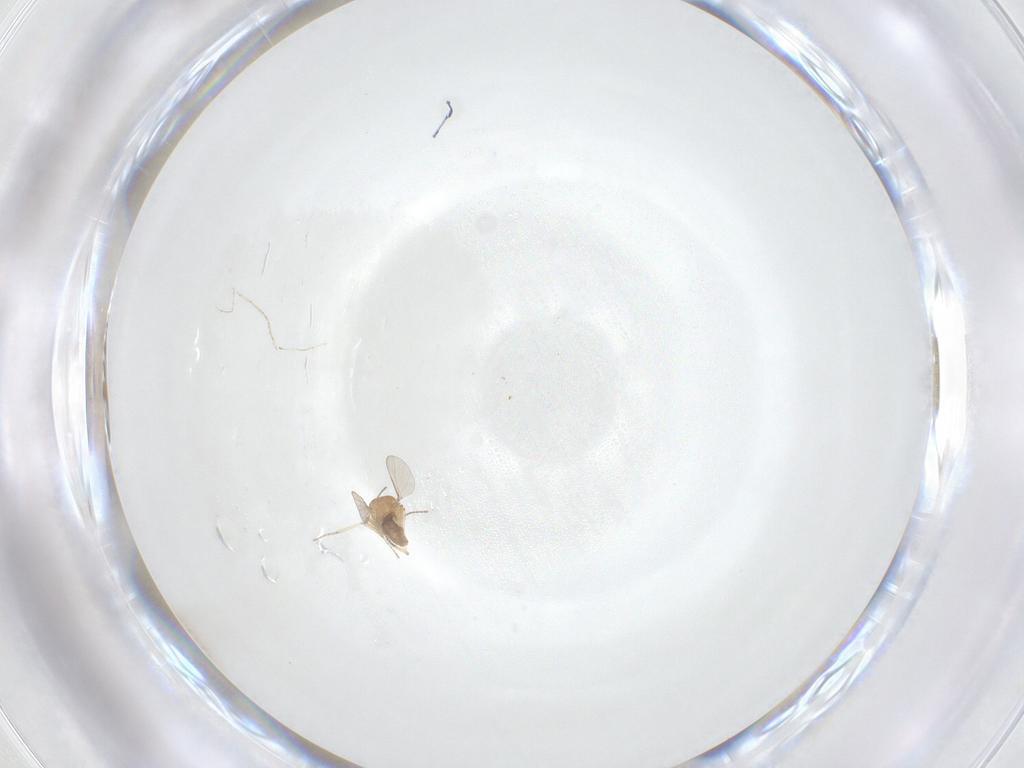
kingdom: Animalia
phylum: Arthropoda
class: Insecta
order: Diptera
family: Ceratopogonidae
